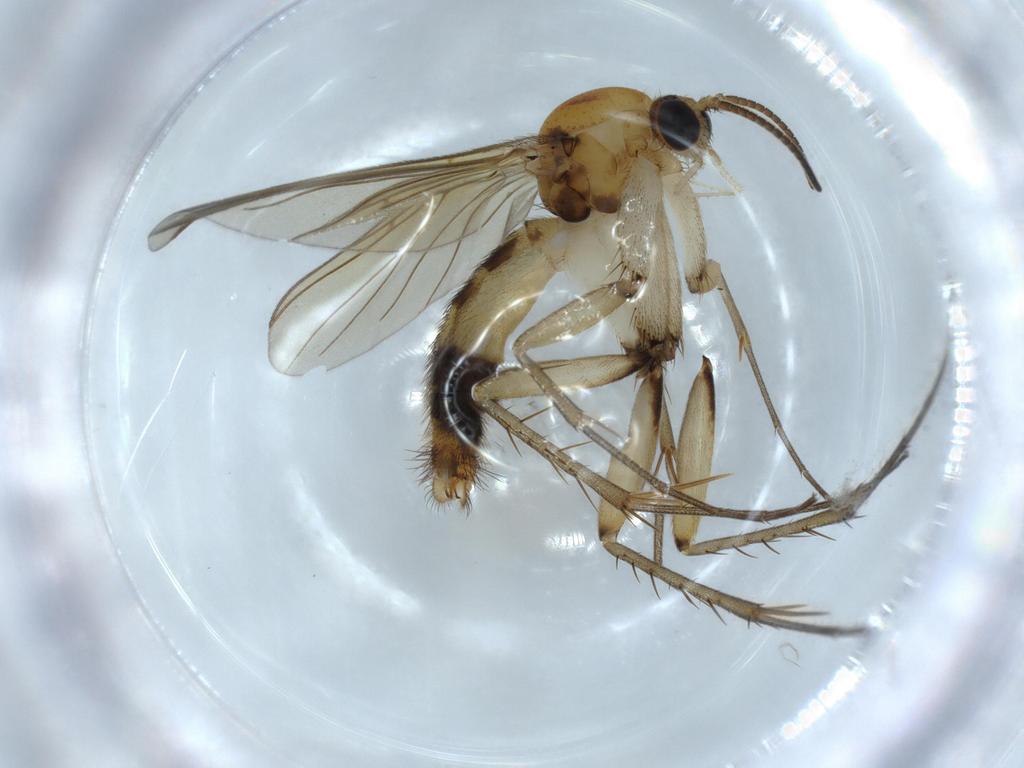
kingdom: Animalia
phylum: Arthropoda
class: Insecta
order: Diptera
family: Mycetophilidae
